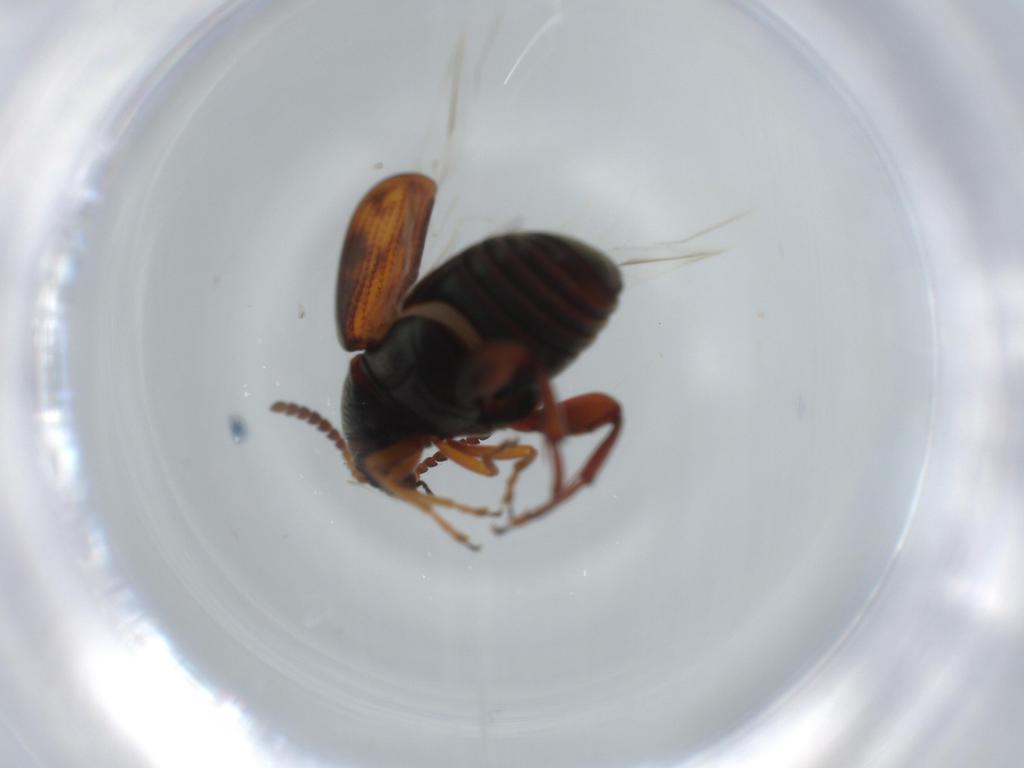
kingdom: Animalia
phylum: Arthropoda
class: Insecta
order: Coleoptera
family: Chrysomelidae
